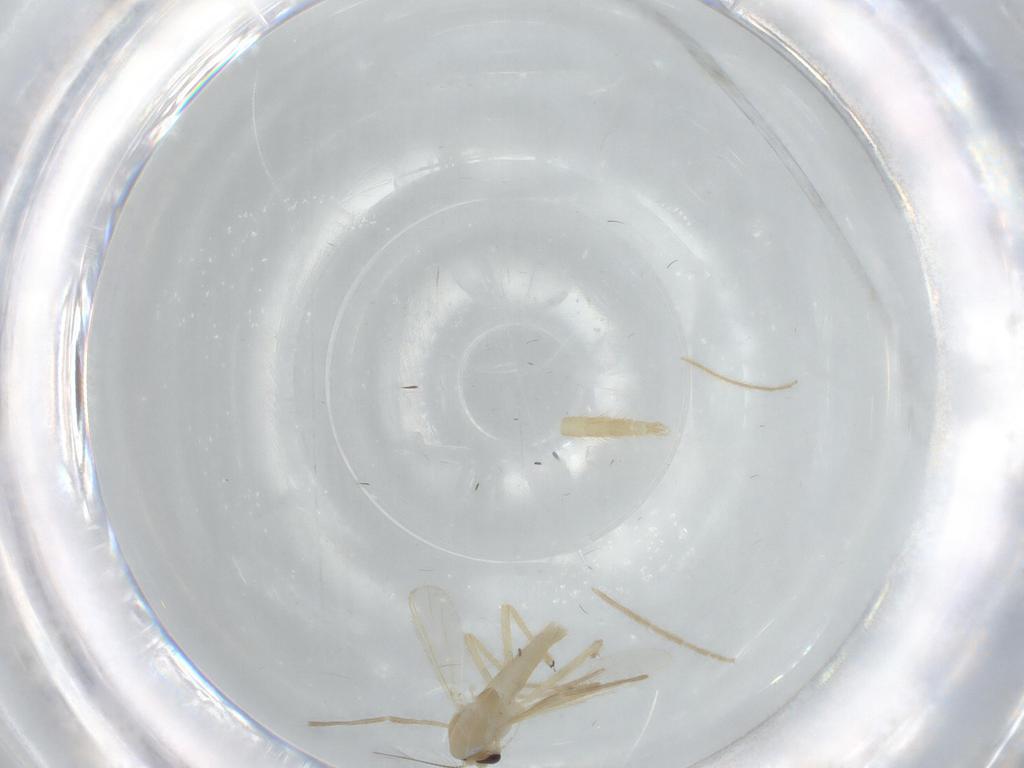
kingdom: Animalia
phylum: Arthropoda
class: Insecta
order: Diptera
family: Chironomidae
